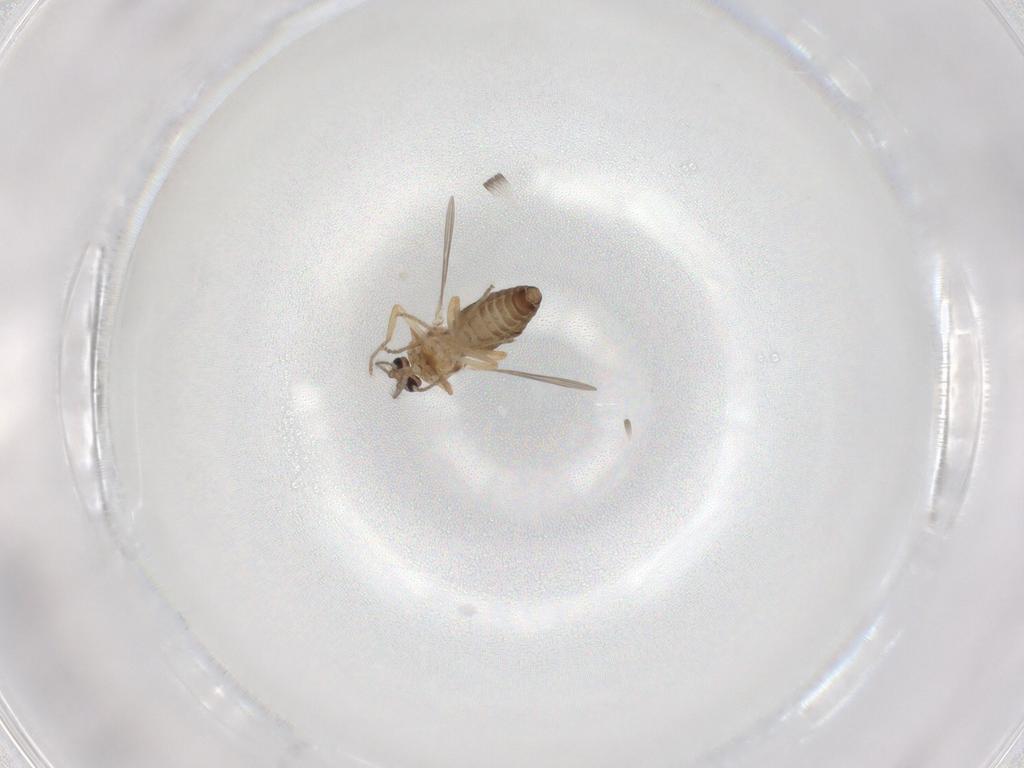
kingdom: Animalia
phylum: Arthropoda
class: Insecta
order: Diptera
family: Ceratopogonidae
